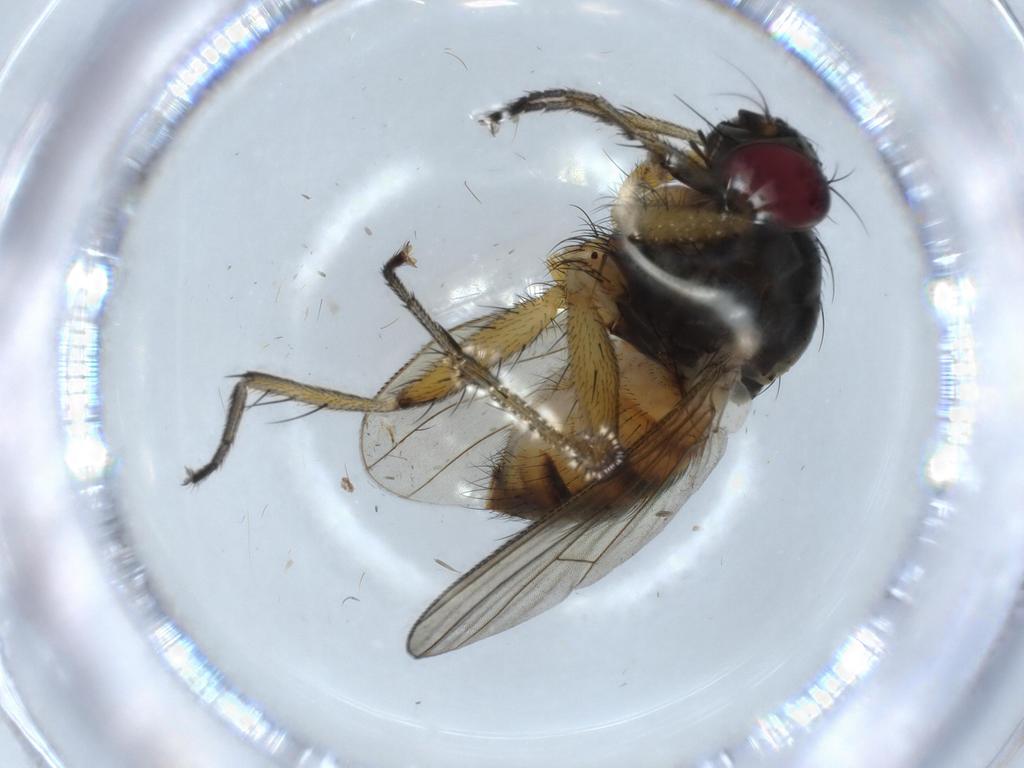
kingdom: Animalia
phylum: Arthropoda
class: Insecta
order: Diptera
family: Muscidae
